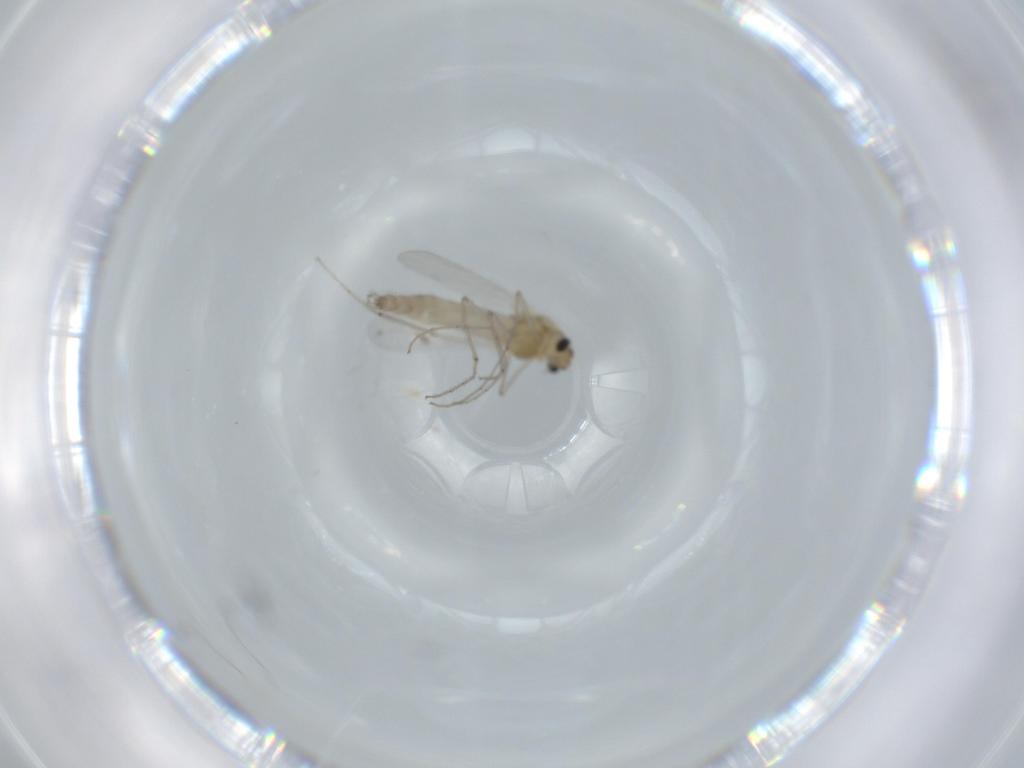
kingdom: Animalia
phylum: Arthropoda
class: Insecta
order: Diptera
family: Chironomidae
